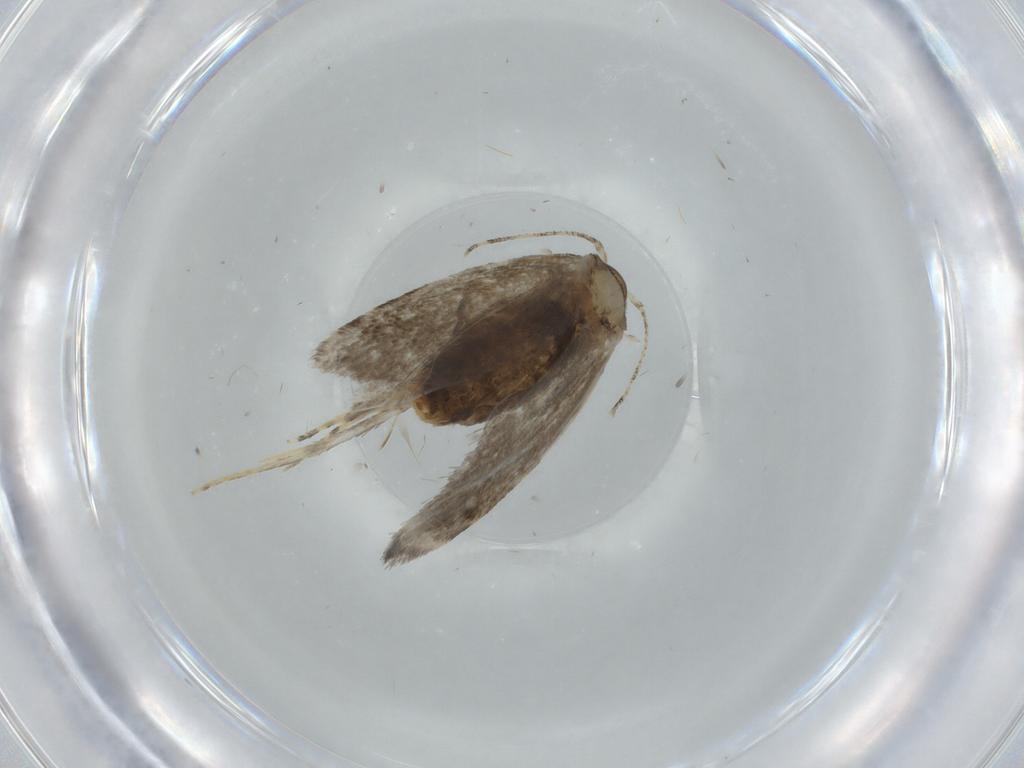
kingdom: Animalia
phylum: Arthropoda
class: Insecta
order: Lepidoptera
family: Tineidae
